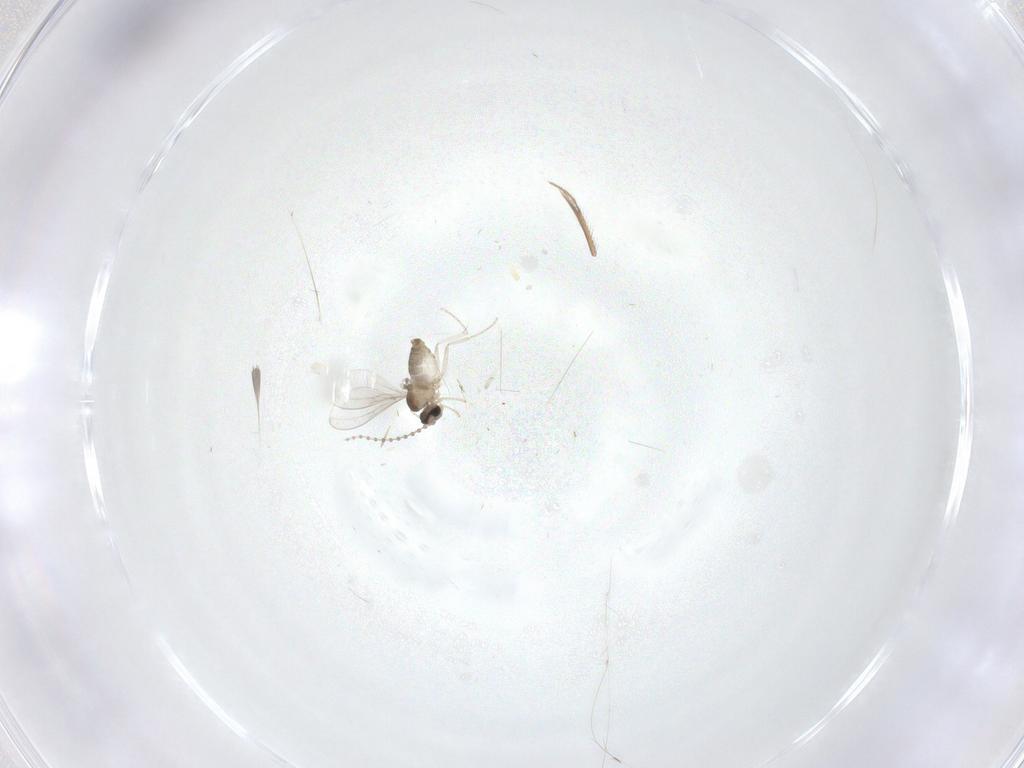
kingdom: Animalia
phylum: Arthropoda
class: Insecta
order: Diptera
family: Cecidomyiidae
